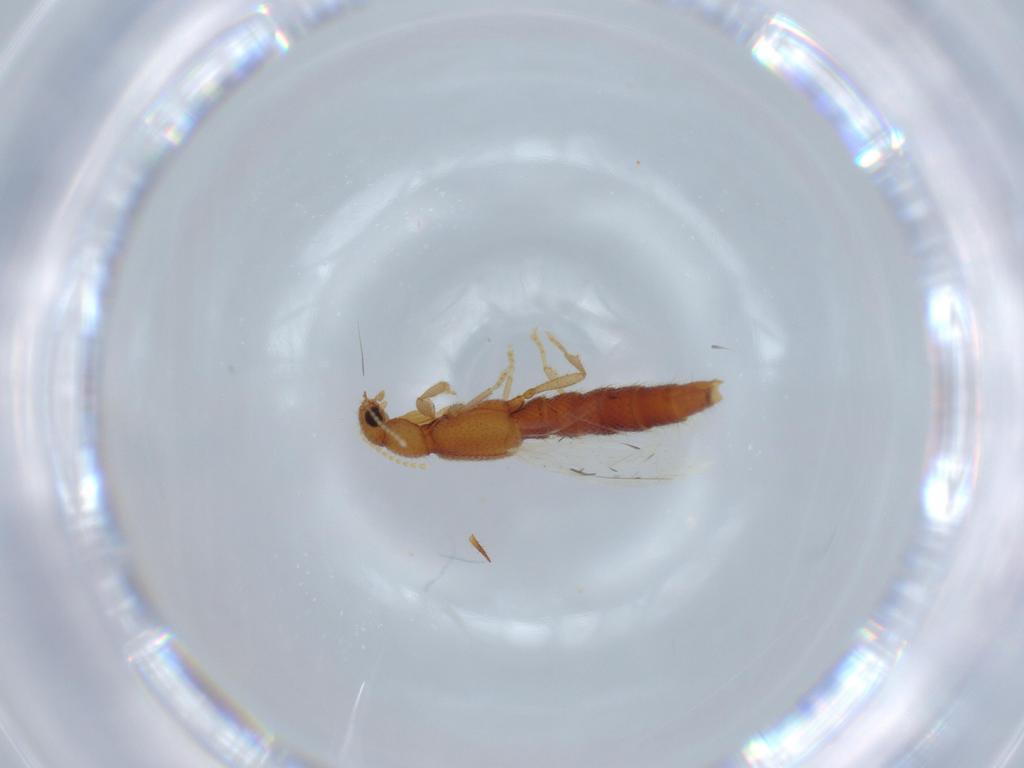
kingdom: Animalia
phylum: Arthropoda
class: Insecta
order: Coleoptera
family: Staphylinidae
